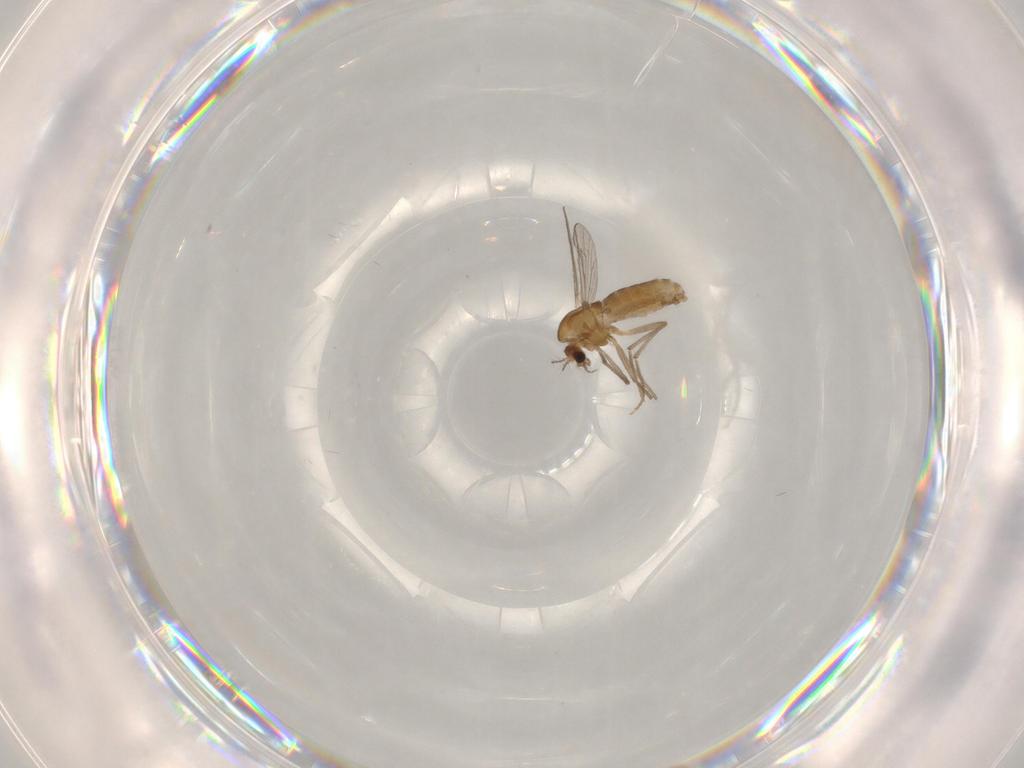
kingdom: Animalia
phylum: Arthropoda
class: Insecta
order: Diptera
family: Chironomidae
